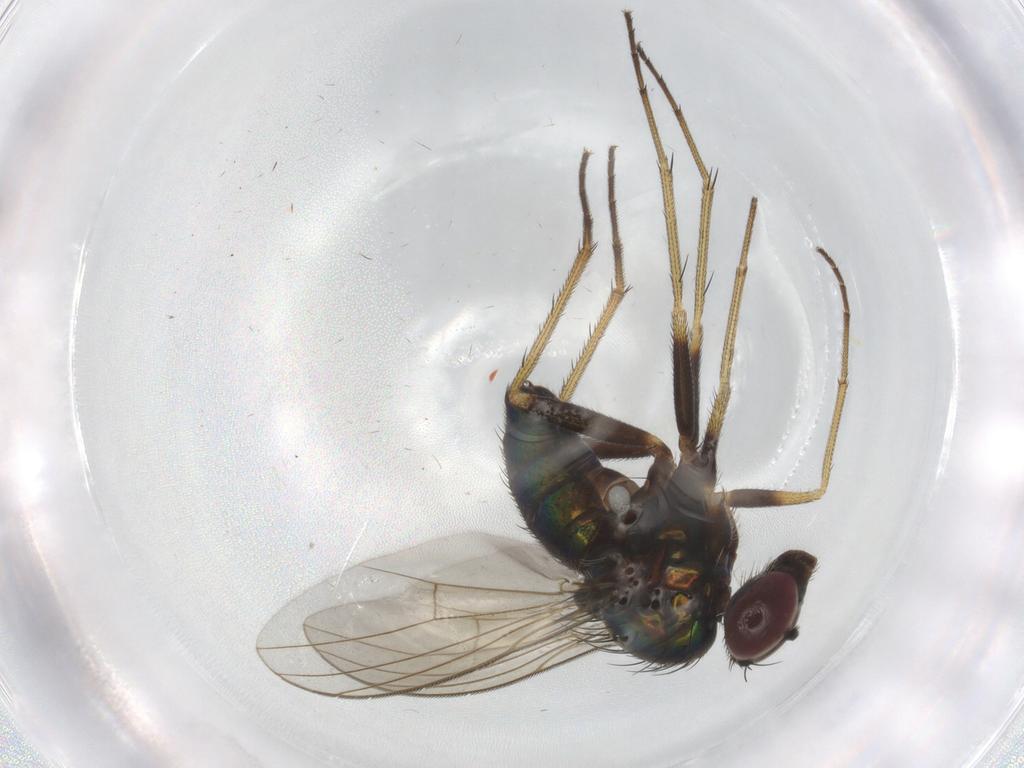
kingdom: Animalia
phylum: Arthropoda
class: Insecta
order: Diptera
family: Dolichopodidae
